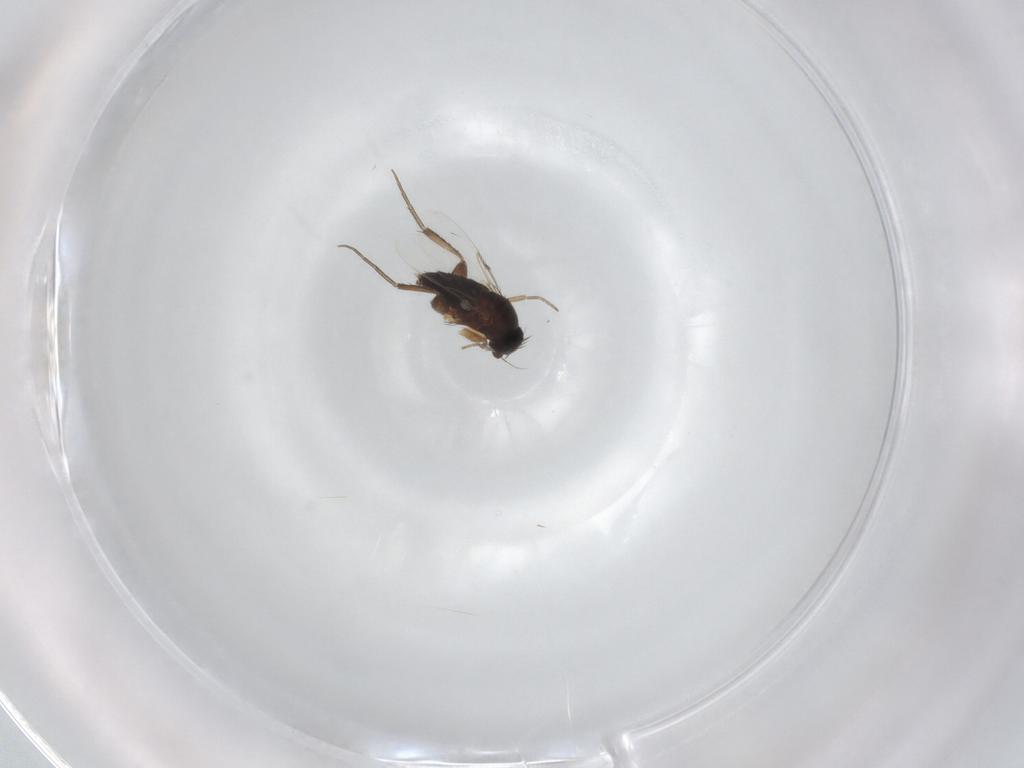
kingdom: Animalia
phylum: Arthropoda
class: Insecta
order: Diptera
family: Phoridae
